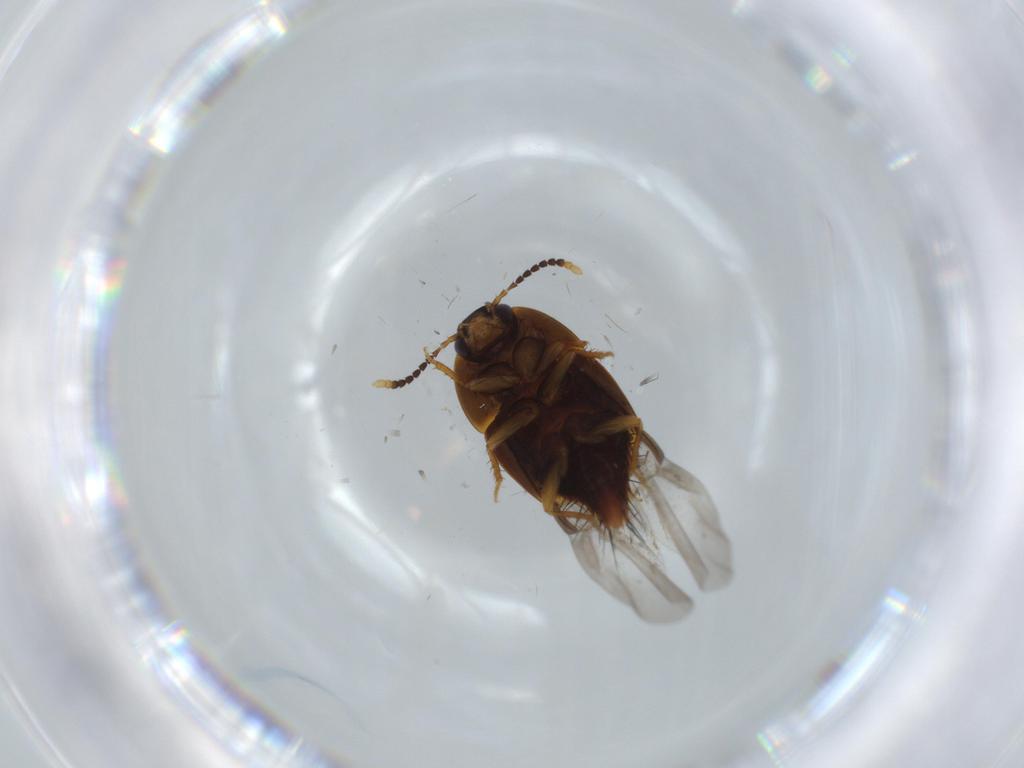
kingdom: Animalia
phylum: Arthropoda
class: Insecta
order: Coleoptera
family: Staphylinidae
